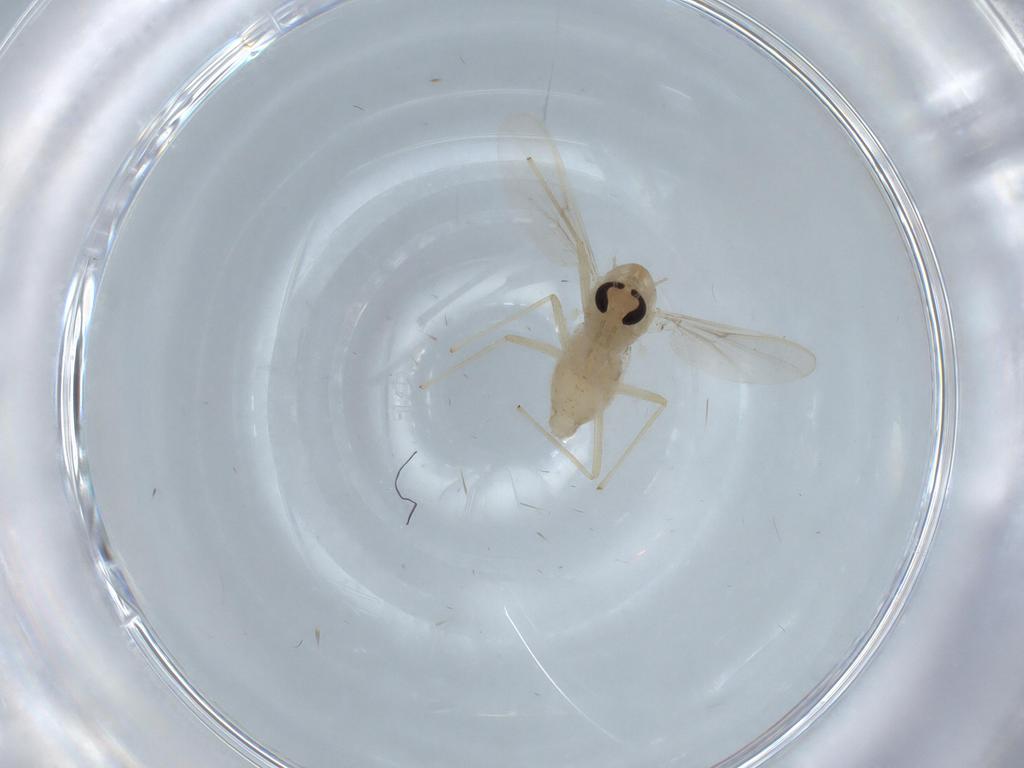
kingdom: Animalia
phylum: Arthropoda
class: Insecta
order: Diptera
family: Chironomidae
